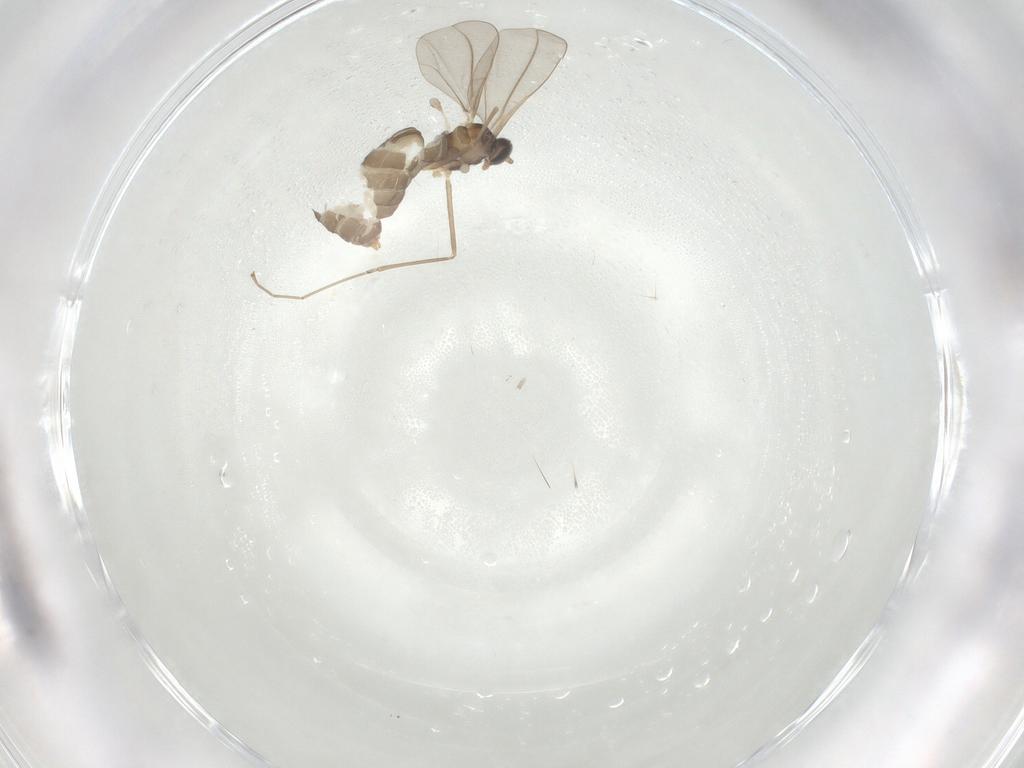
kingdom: Animalia
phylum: Arthropoda
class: Insecta
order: Diptera
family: Cecidomyiidae
